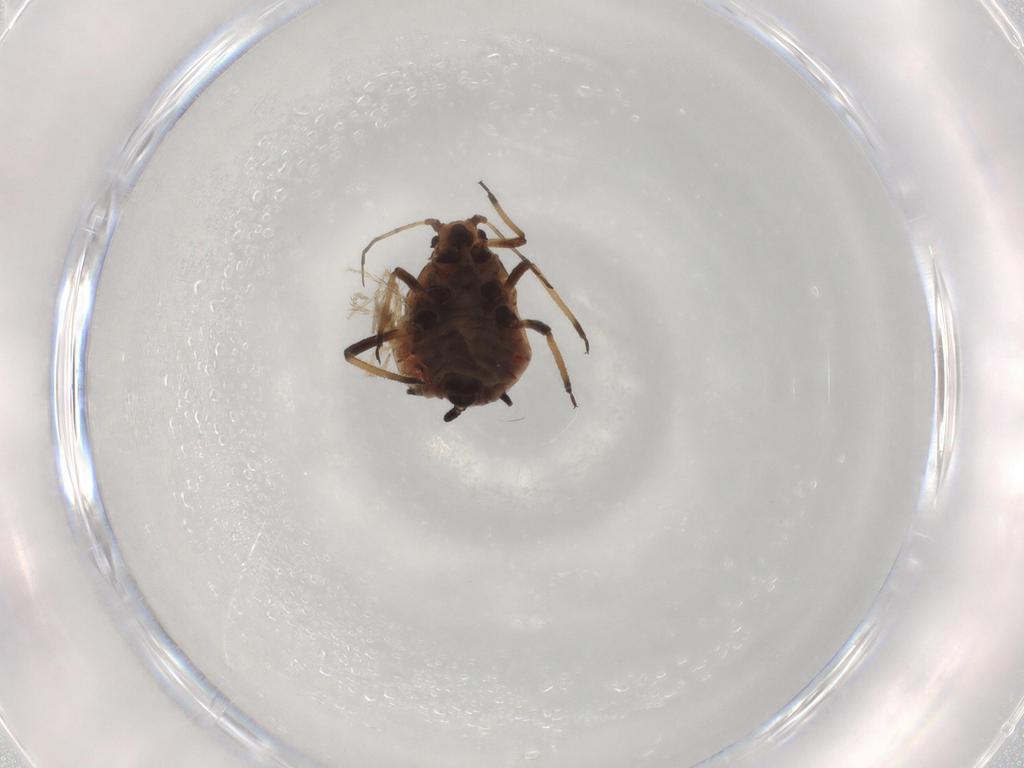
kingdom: Animalia
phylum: Arthropoda
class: Insecta
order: Hemiptera
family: Aphididae
